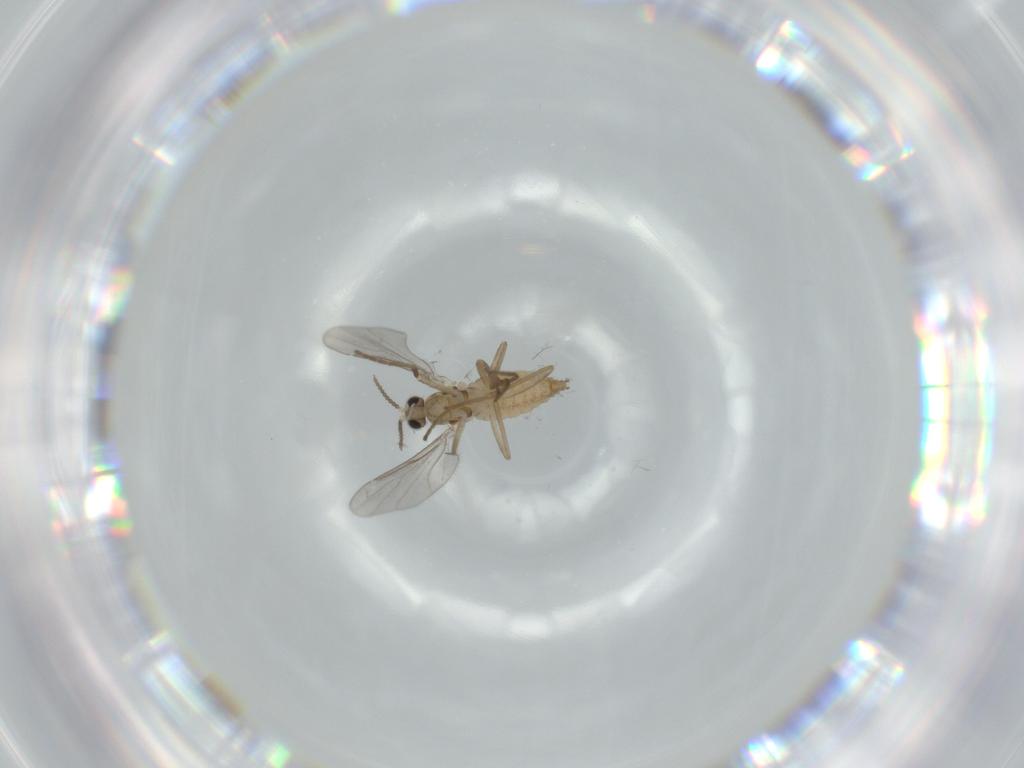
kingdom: Animalia
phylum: Arthropoda
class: Insecta
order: Diptera
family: Cecidomyiidae
